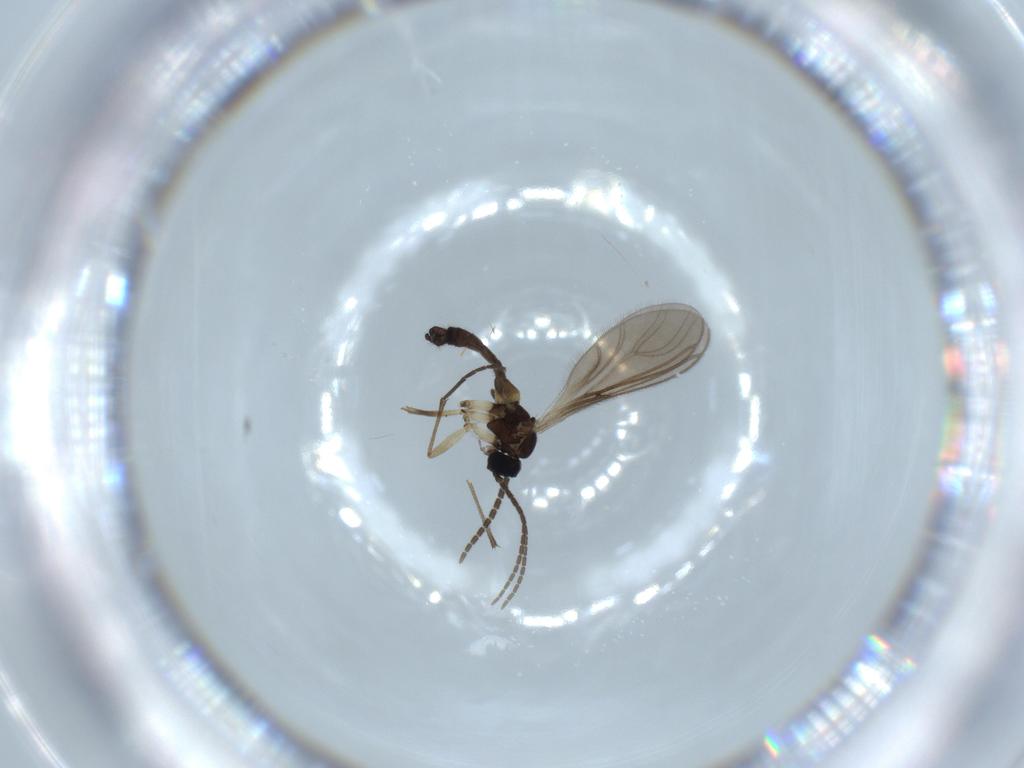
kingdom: Animalia
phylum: Arthropoda
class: Insecta
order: Diptera
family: Sciaridae
